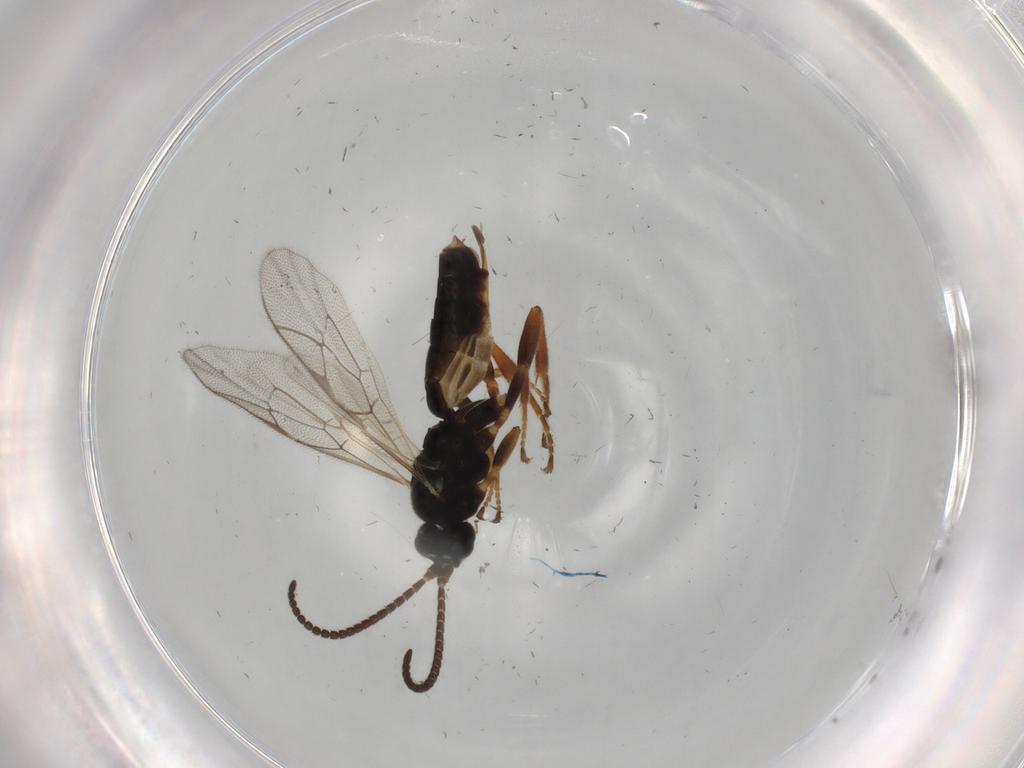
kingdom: Animalia
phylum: Arthropoda
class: Insecta
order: Hymenoptera
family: Ichneumonidae
